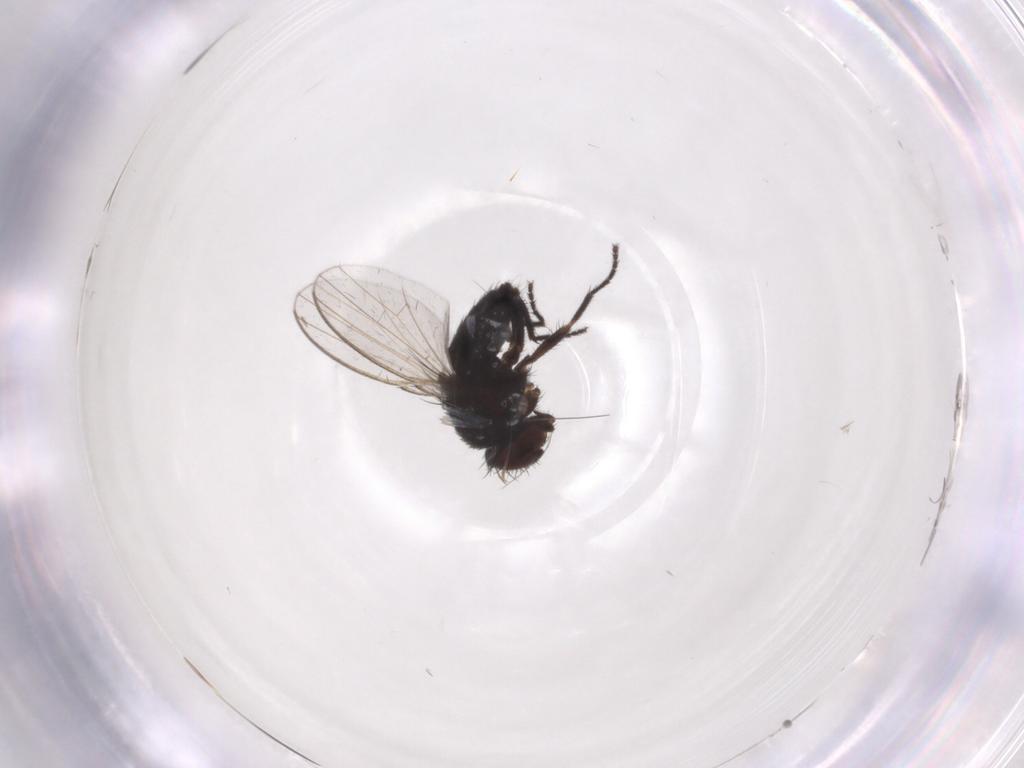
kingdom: Animalia
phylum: Arthropoda
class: Insecta
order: Diptera
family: Milichiidae
